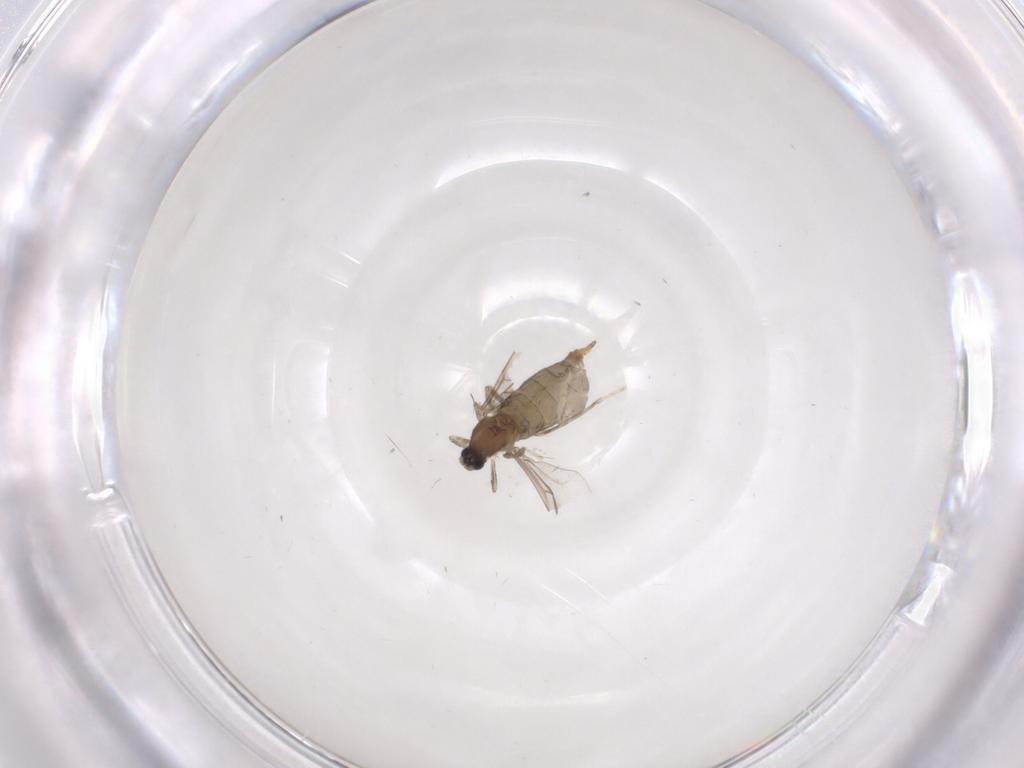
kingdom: Animalia
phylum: Arthropoda
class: Insecta
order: Diptera
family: Cecidomyiidae
